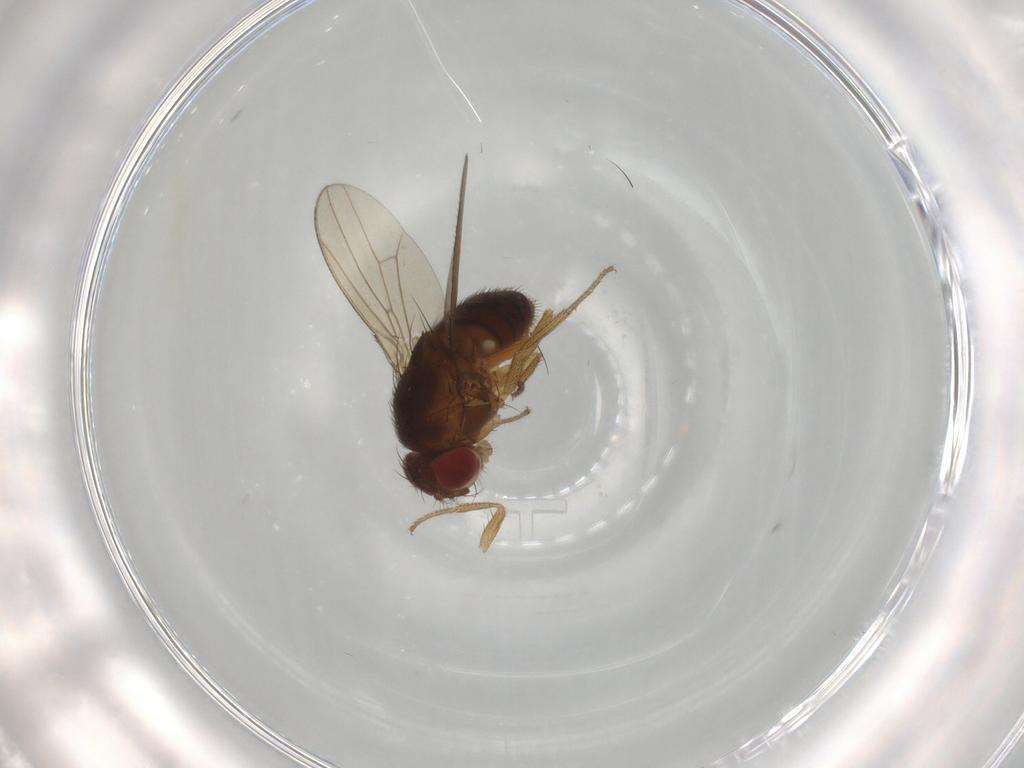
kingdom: Animalia
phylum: Arthropoda
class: Insecta
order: Diptera
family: Drosophilidae
